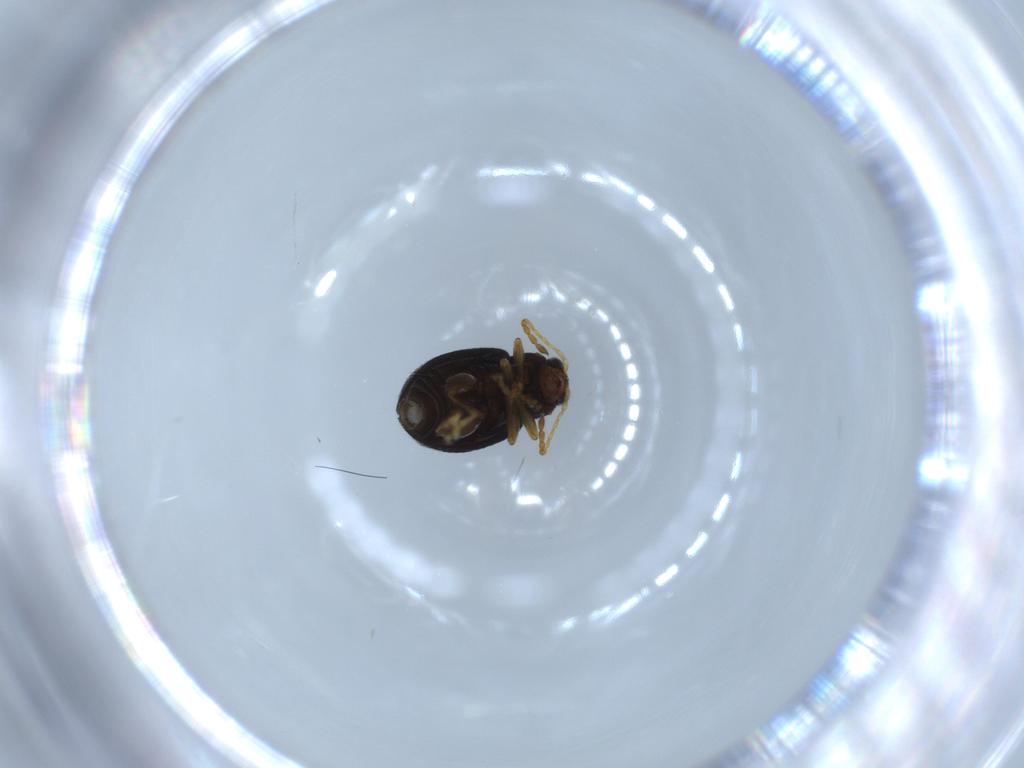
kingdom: Animalia
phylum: Arthropoda
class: Insecta
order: Coleoptera
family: Chrysomelidae
